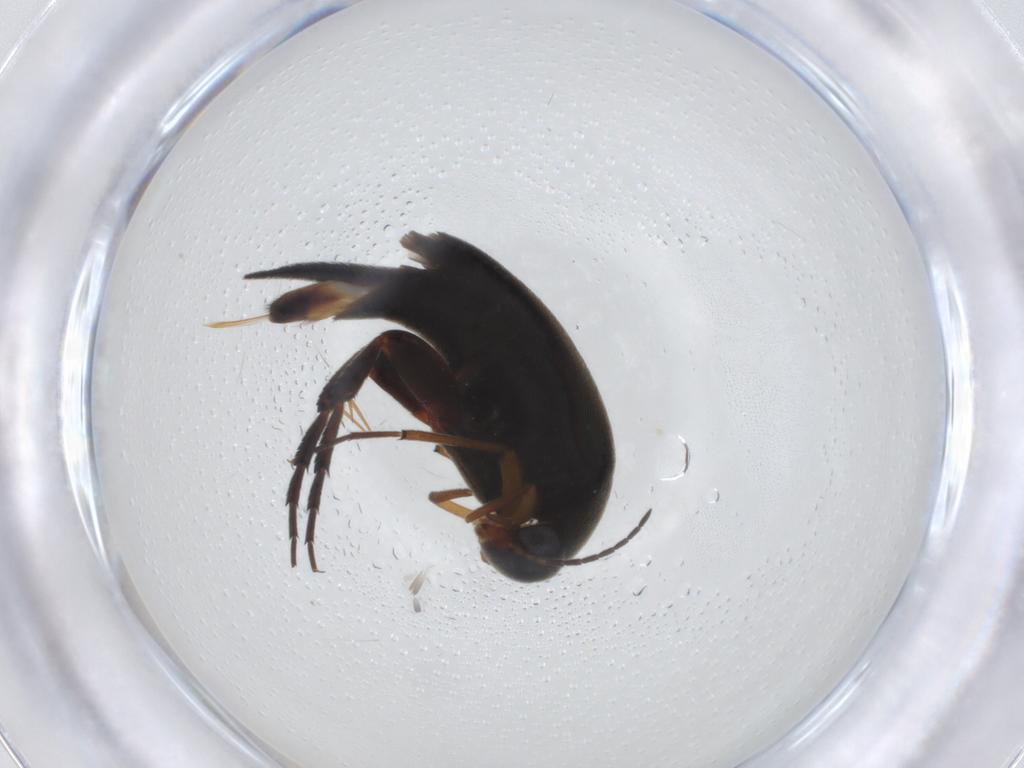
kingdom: Animalia
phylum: Arthropoda
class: Insecta
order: Coleoptera
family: Mordellidae
